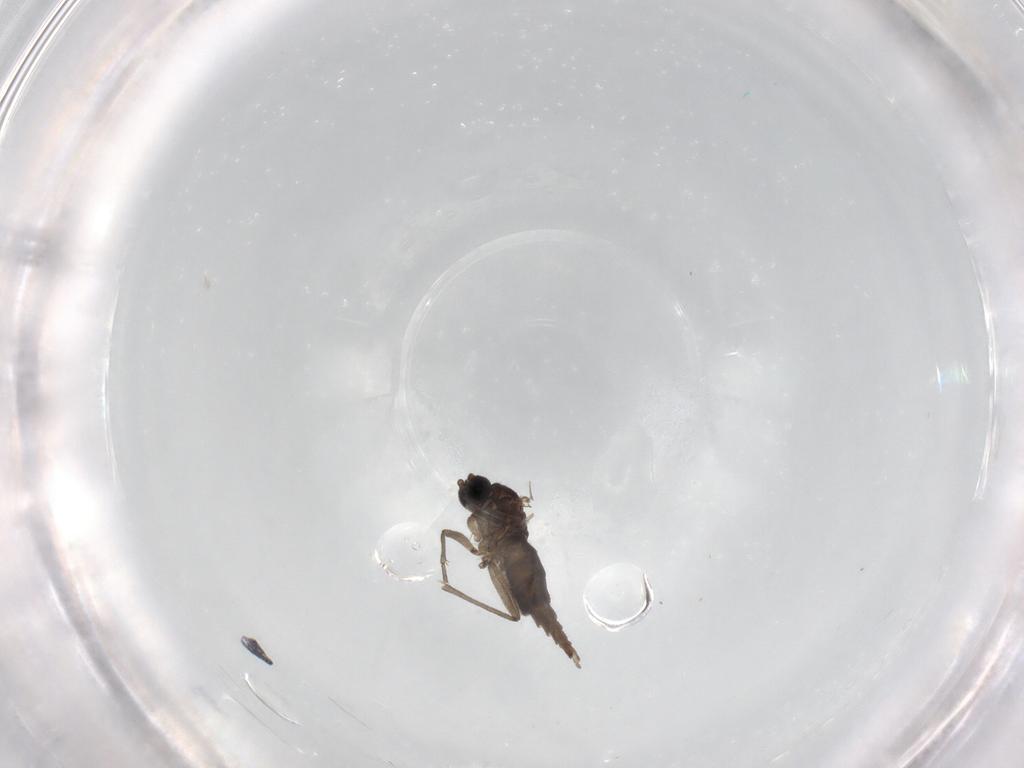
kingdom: Animalia
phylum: Arthropoda
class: Insecta
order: Diptera
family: Sciaridae
